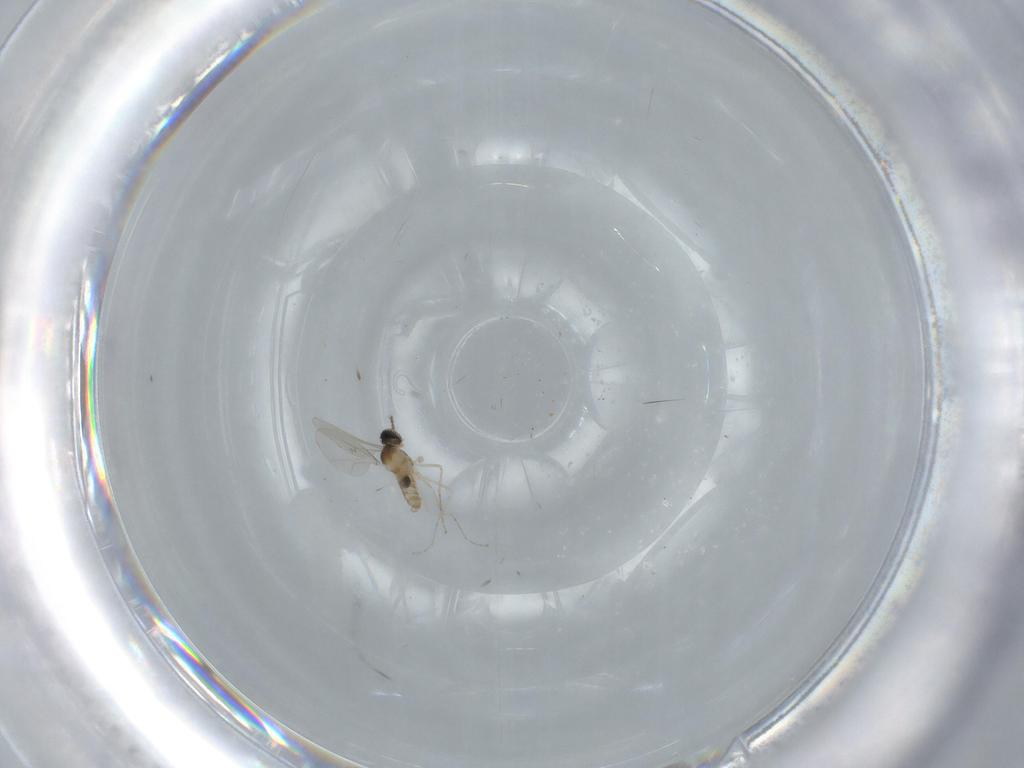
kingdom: Animalia
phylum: Arthropoda
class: Insecta
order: Diptera
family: Cecidomyiidae
